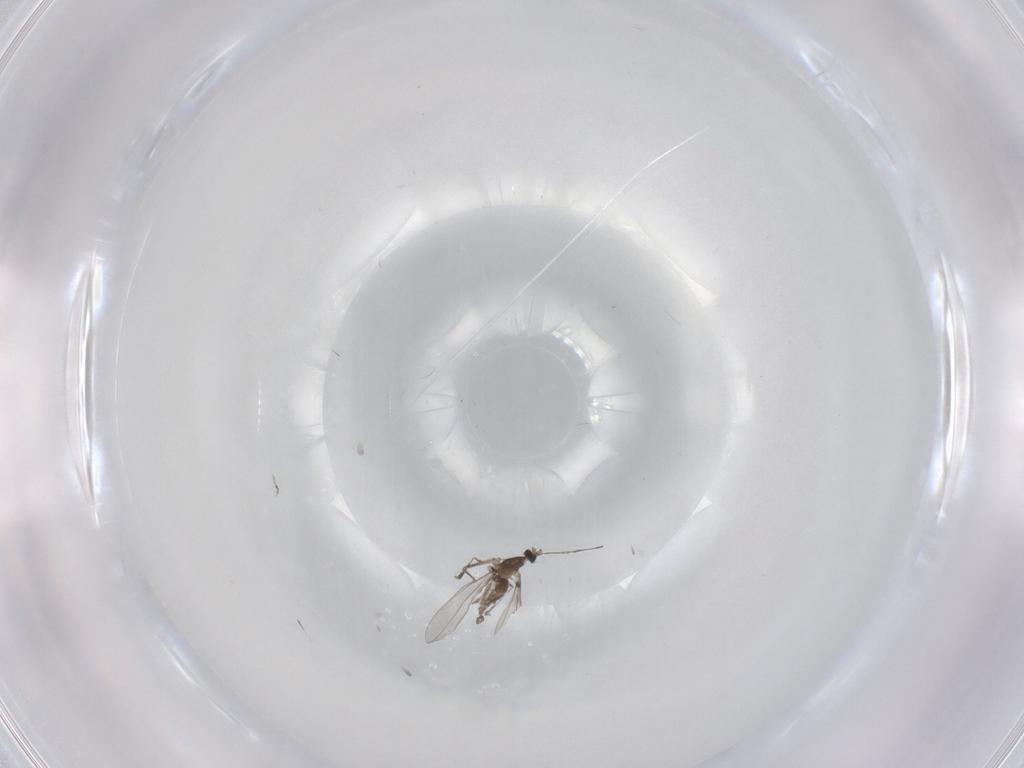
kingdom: Animalia
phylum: Arthropoda
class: Insecta
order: Diptera
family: Cecidomyiidae
